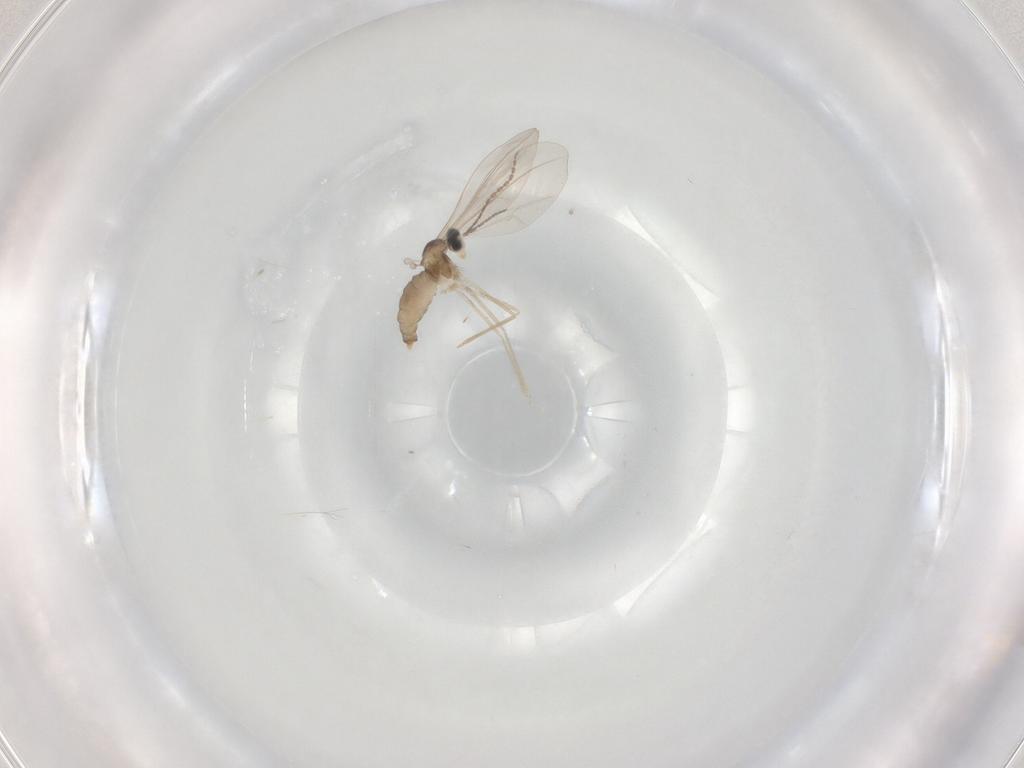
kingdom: Animalia
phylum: Arthropoda
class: Insecta
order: Diptera
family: Cecidomyiidae
